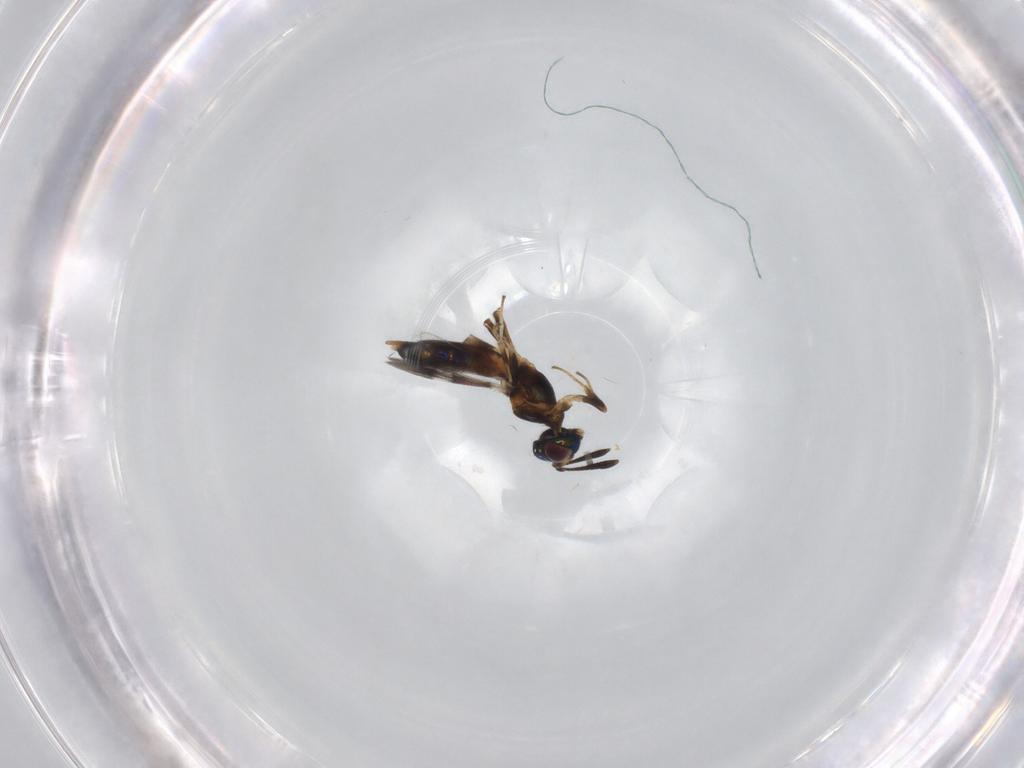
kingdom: Animalia
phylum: Arthropoda
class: Insecta
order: Hymenoptera
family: Eupelmidae
